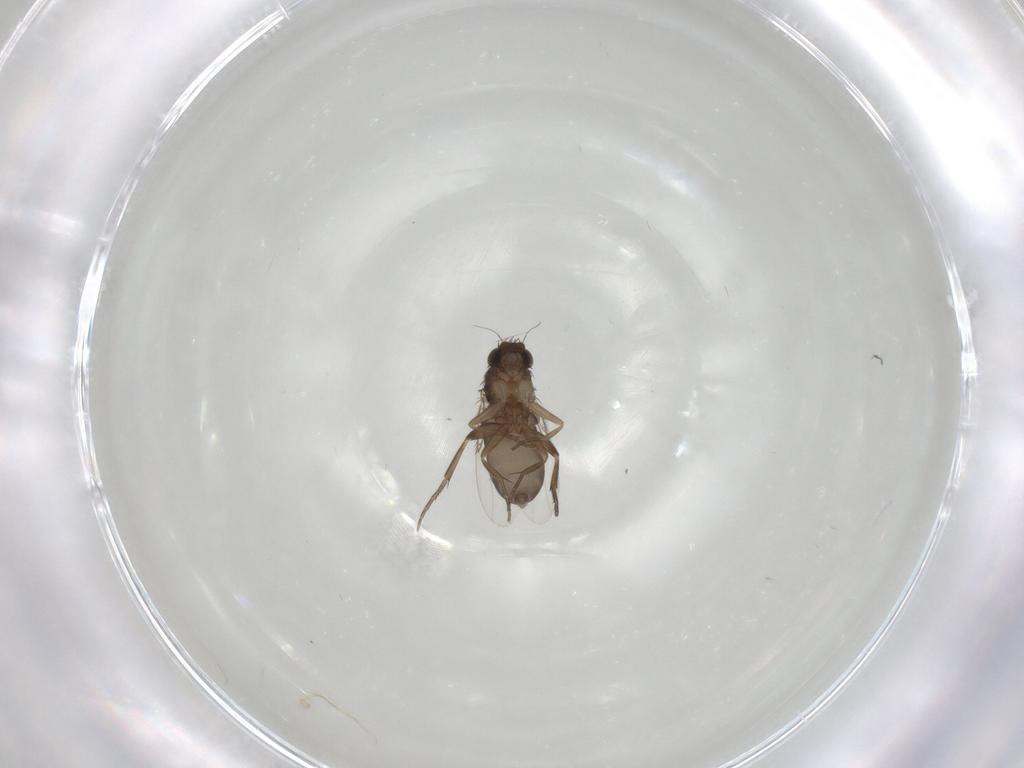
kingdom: Animalia
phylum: Arthropoda
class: Insecta
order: Diptera
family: Phoridae
